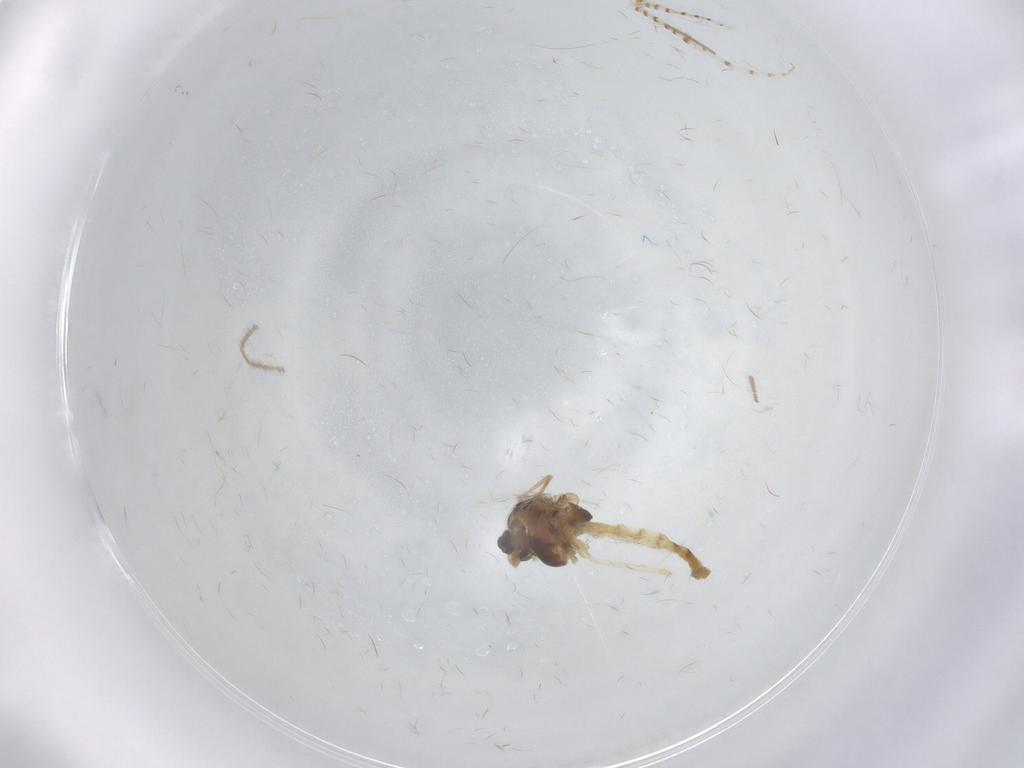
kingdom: Animalia
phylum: Arthropoda
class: Insecta
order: Diptera
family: Chironomidae
